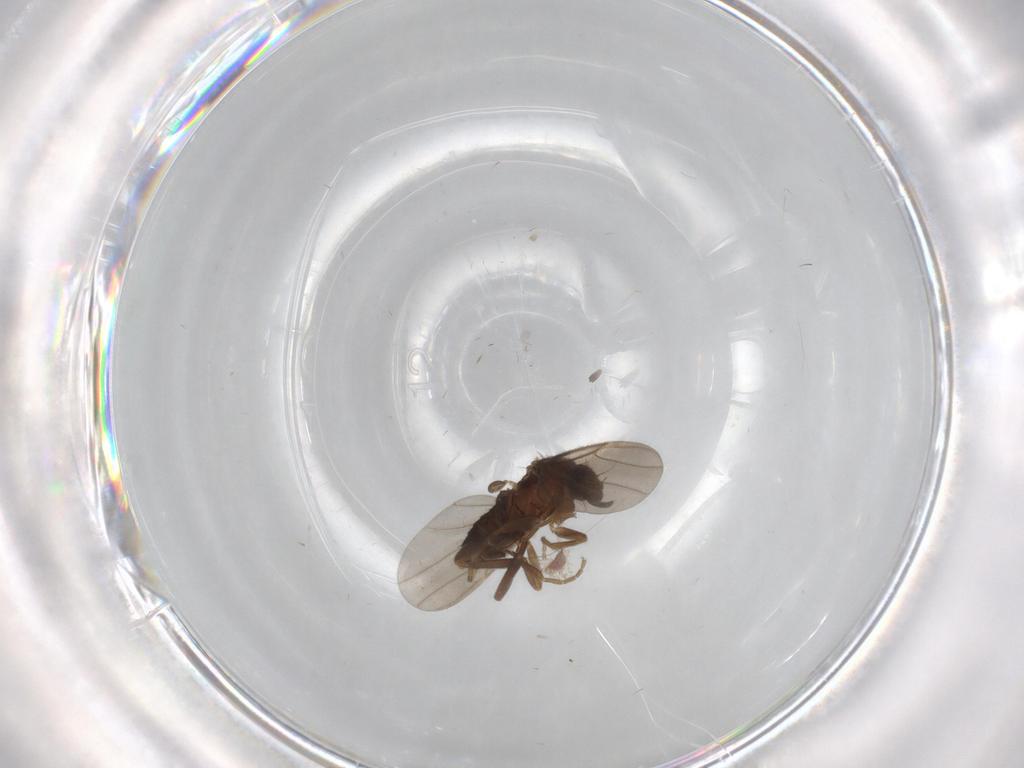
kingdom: Animalia
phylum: Arthropoda
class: Insecta
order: Diptera
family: Phoridae
